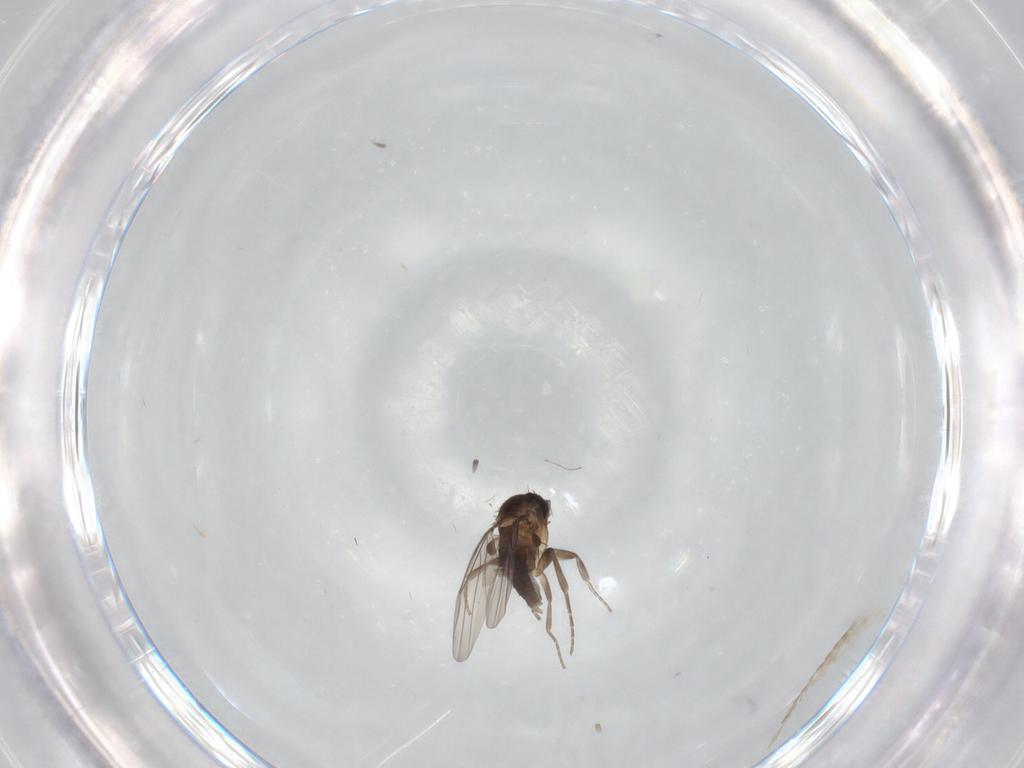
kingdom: Animalia
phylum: Arthropoda
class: Insecta
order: Diptera
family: Phoridae
